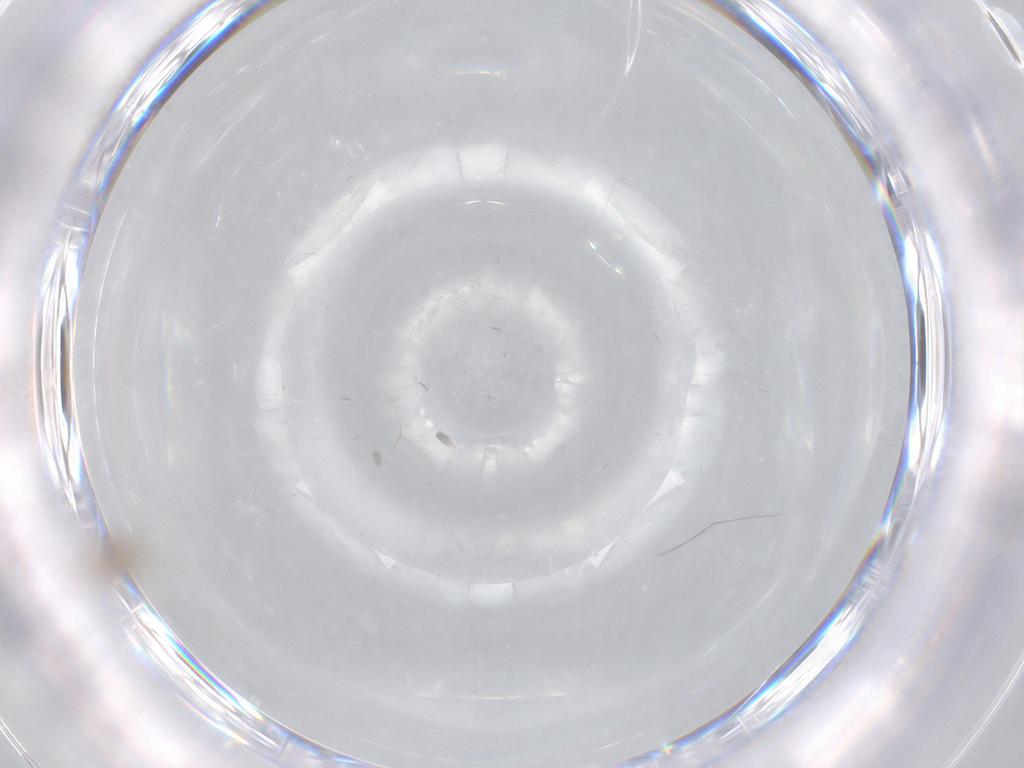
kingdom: Animalia
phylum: Arthropoda
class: Insecta
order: Diptera
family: Cecidomyiidae
